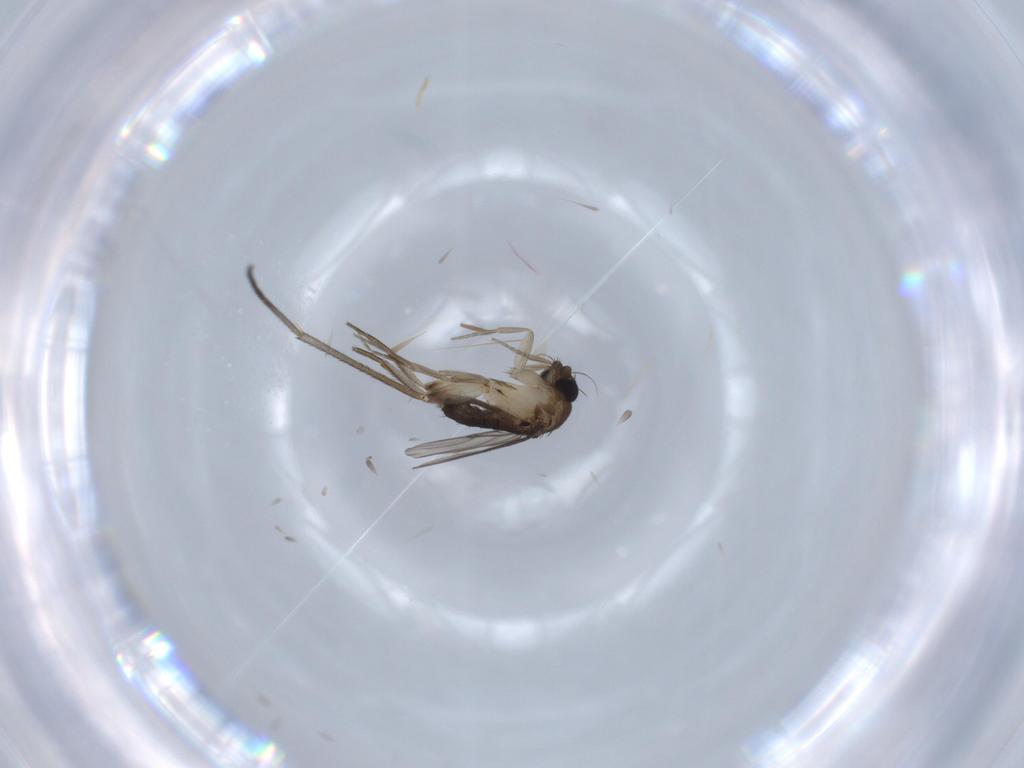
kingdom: Animalia
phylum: Arthropoda
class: Insecta
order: Diptera
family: Phoridae
